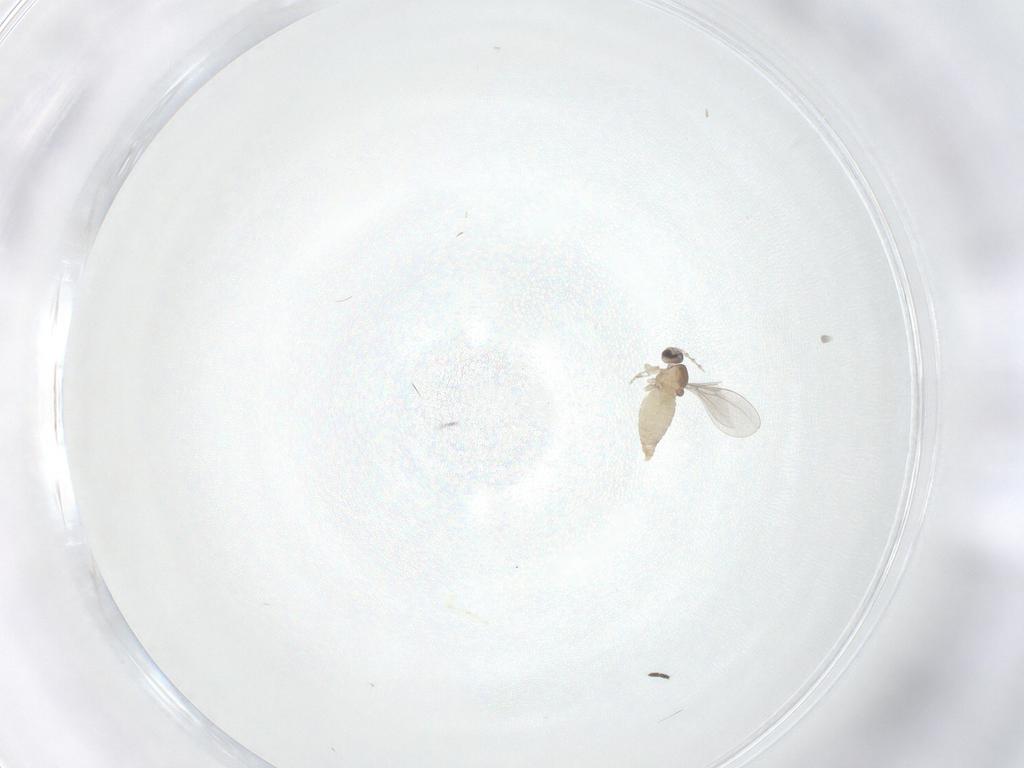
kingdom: Animalia
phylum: Arthropoda
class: Insecta
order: Diptera
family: Cecidomyiidae
